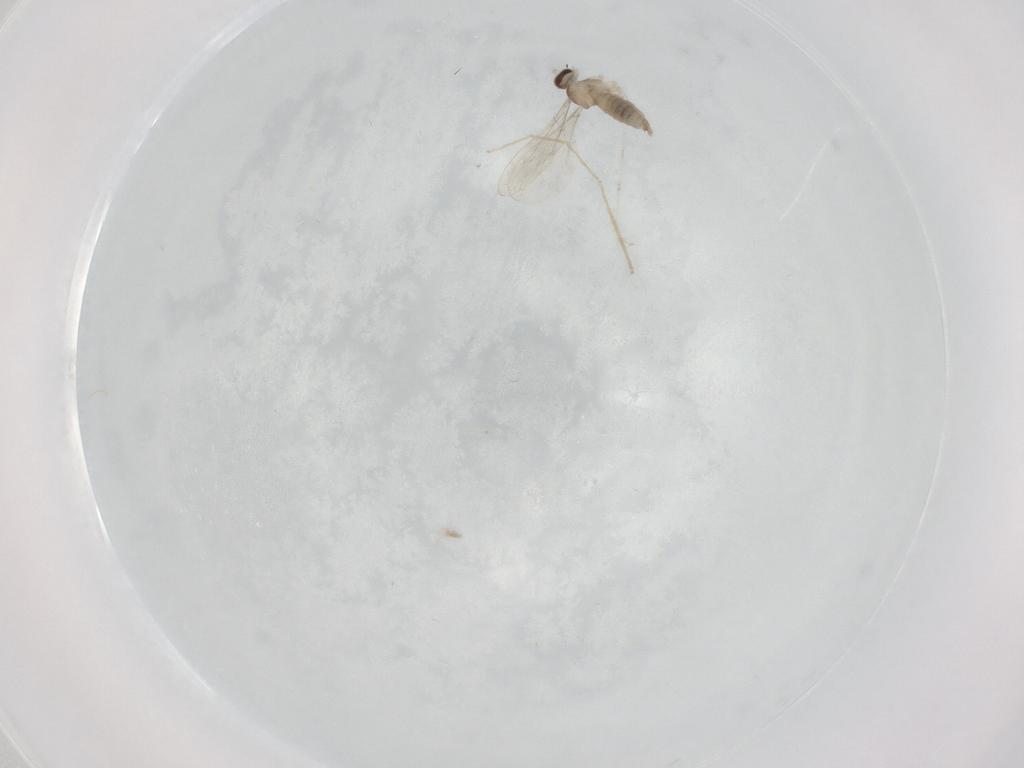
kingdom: Animalia
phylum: Arthropoda
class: Insecta
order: Diptera
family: Cecidomyiidae
